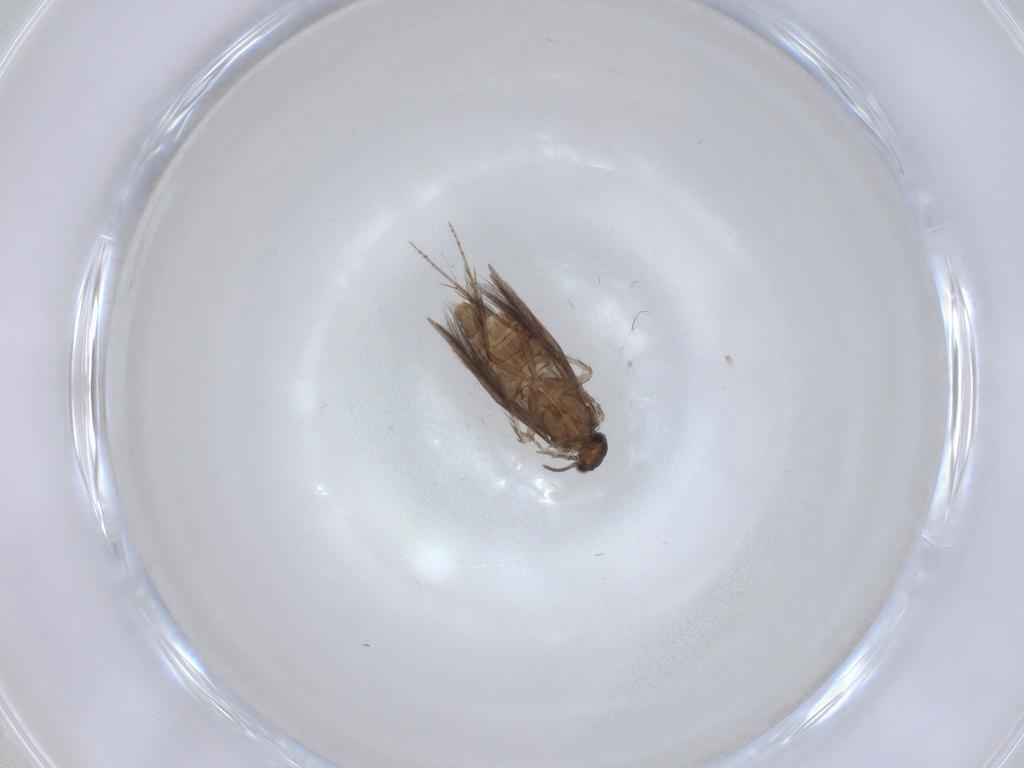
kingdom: Animalia
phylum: Arthropoda
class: Insecta
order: Trichoptera
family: Hydroptilidae
